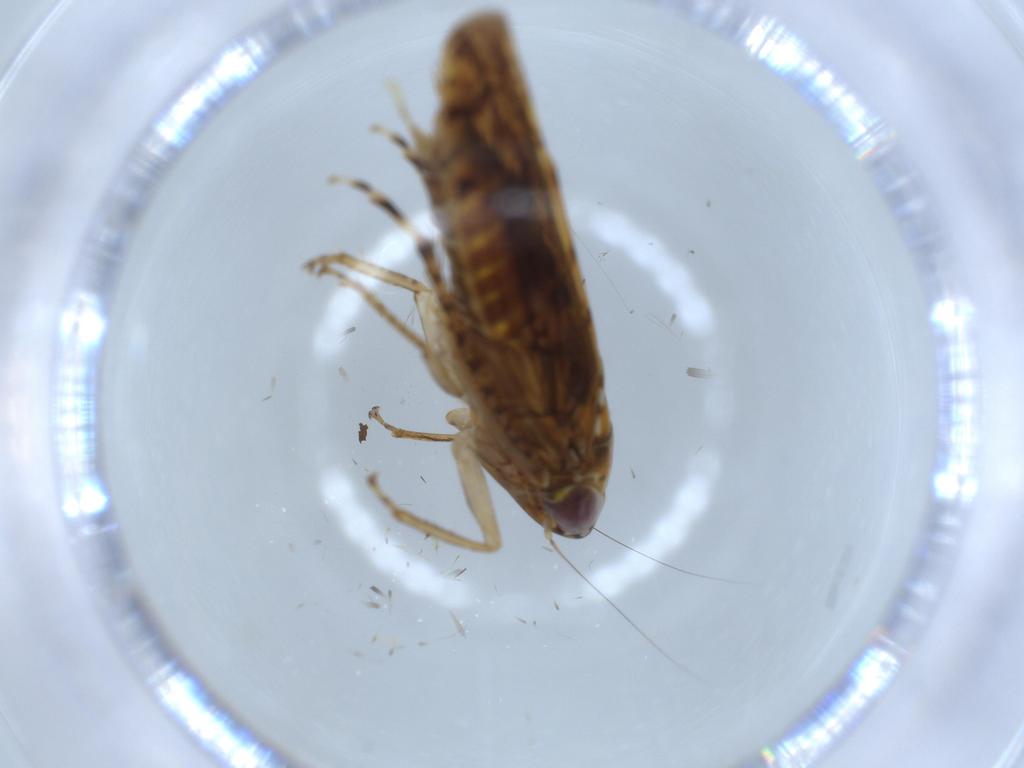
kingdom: Animalia
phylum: Arthropoda
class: Insecta
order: Hemiptera
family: Cicadellidae
